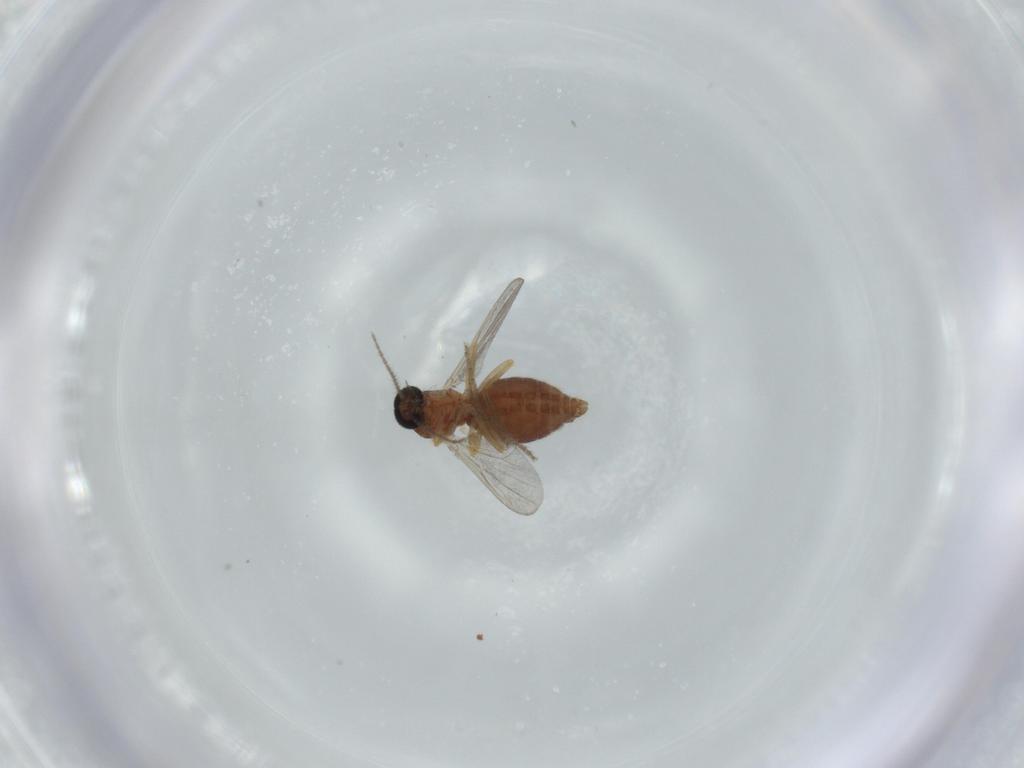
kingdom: Animalia
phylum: Arthropoda
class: Insecta
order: Diptera
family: Ceratopogonidae
